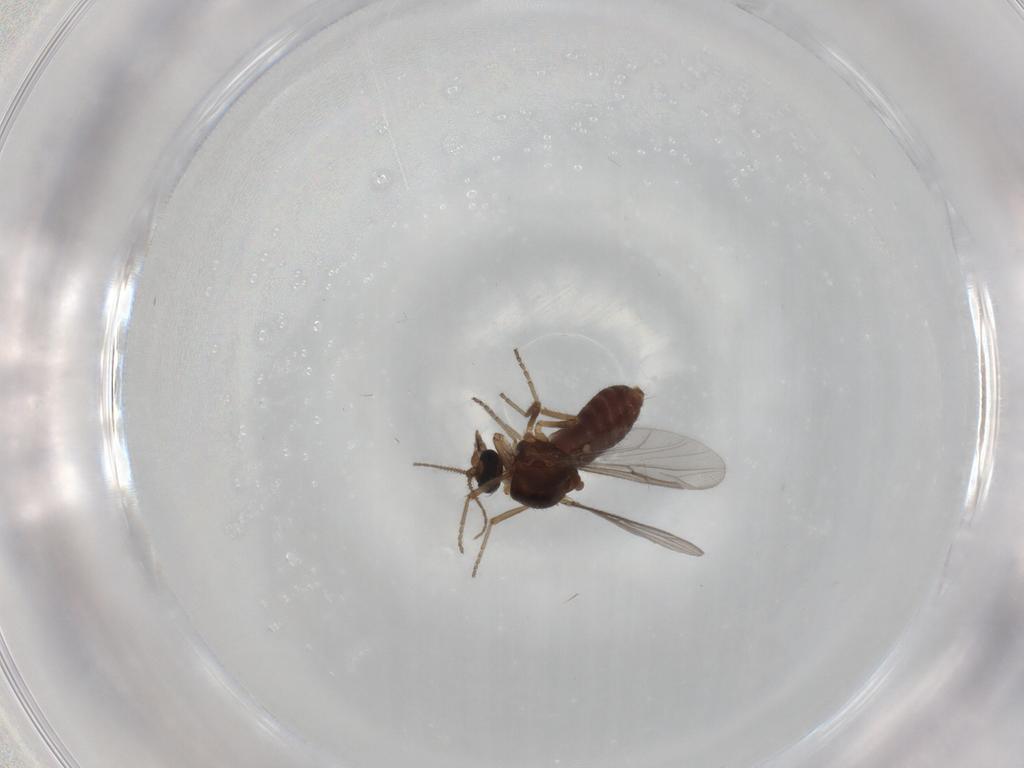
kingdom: Animalia
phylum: Arthropoda
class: Insecta
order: Diptera
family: Ceratopogonidae
